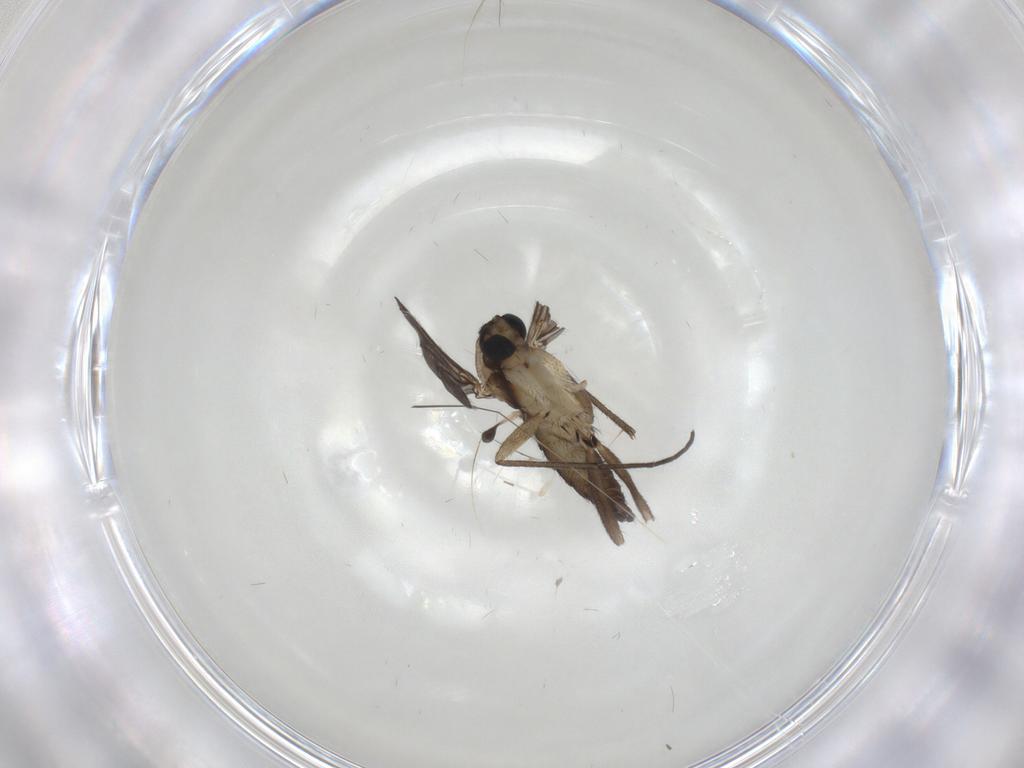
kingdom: Animalia
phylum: Arthropoda
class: Insecta
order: Diptera
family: Sciaridae
